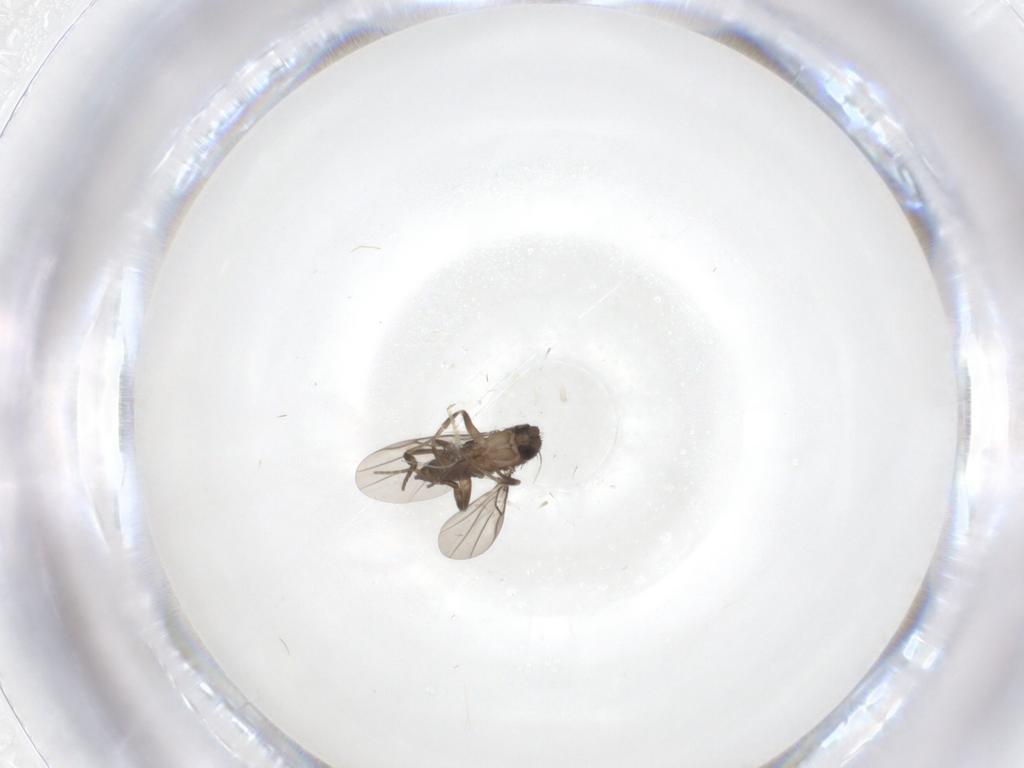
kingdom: Animalia
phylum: Arthropoda
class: Insecta
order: Diptera
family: Phoridae
